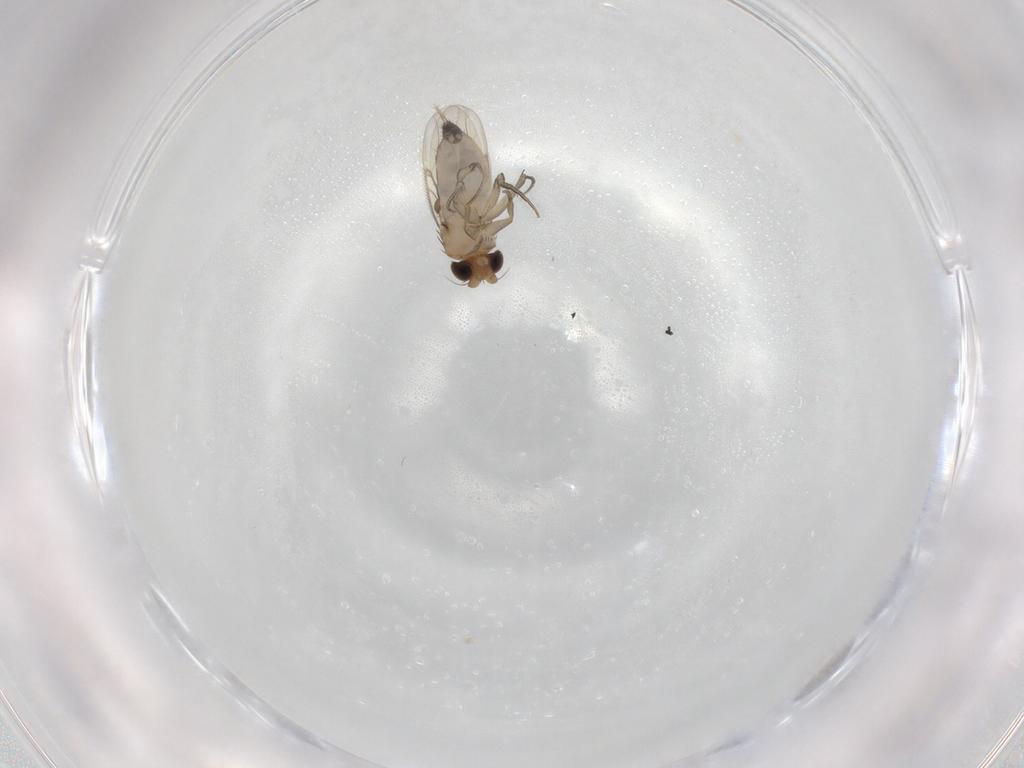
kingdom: Animalia
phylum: Arthropoda
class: Insecta
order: Diptera
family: Phoridae
